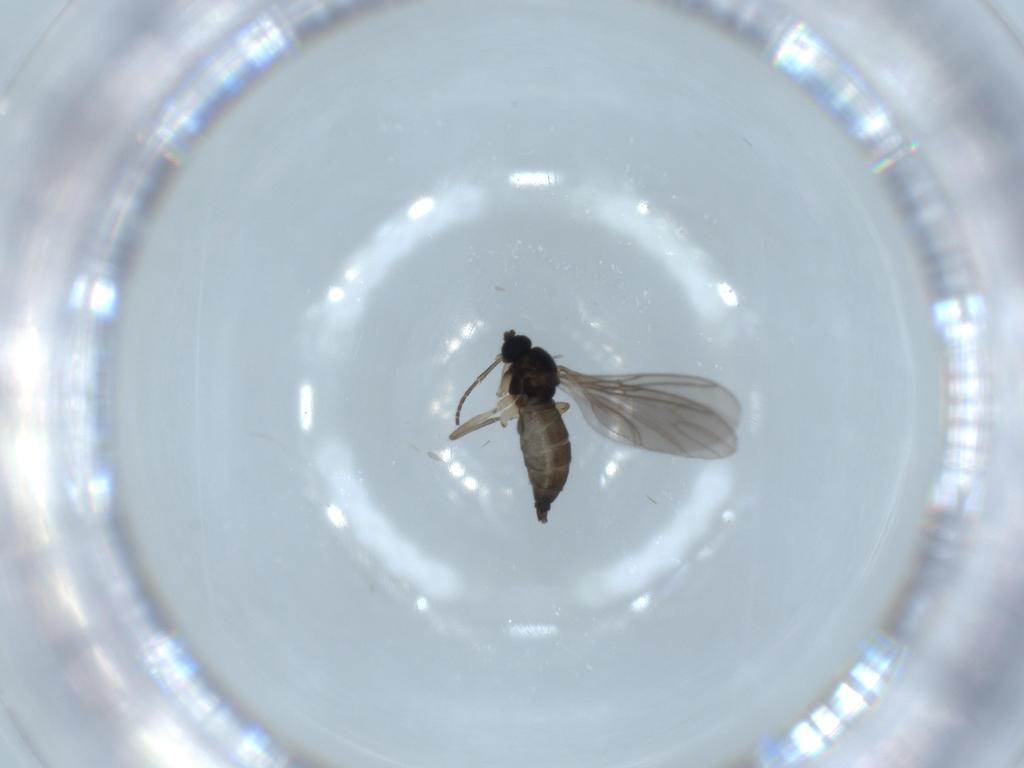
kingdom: Animalia
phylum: Arthropoda
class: Insecta
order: Diptera
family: Sciaridae
